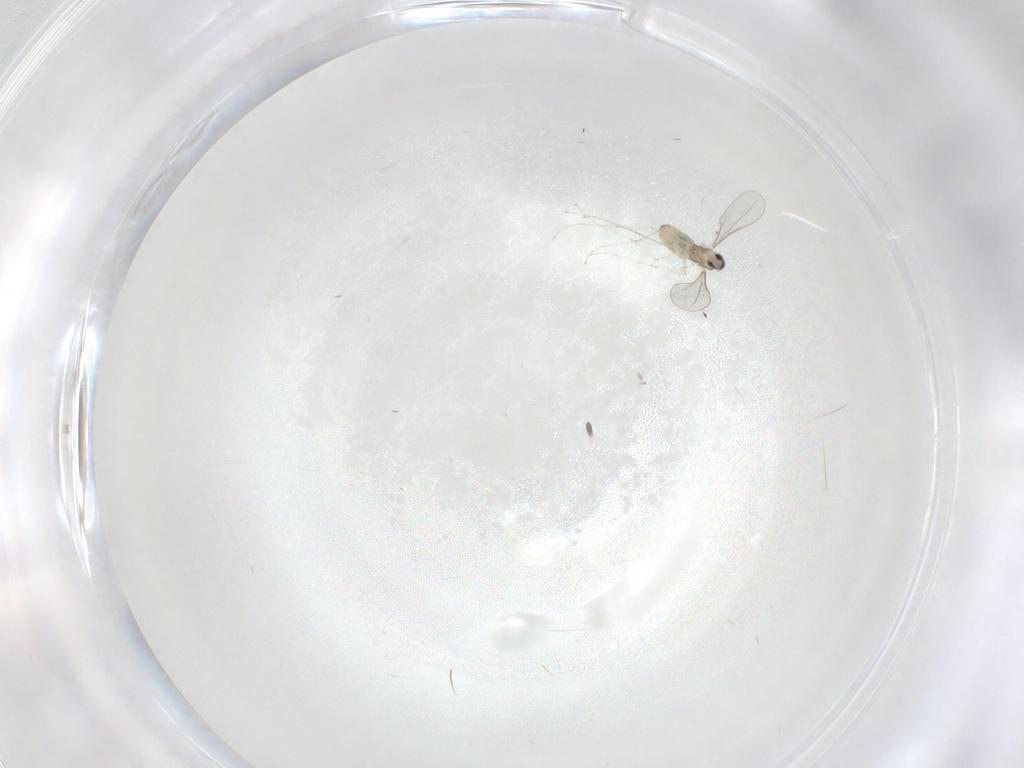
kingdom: Animalia
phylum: Arthropoda
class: Insecta
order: Diptera
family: Cecidomyiidae
